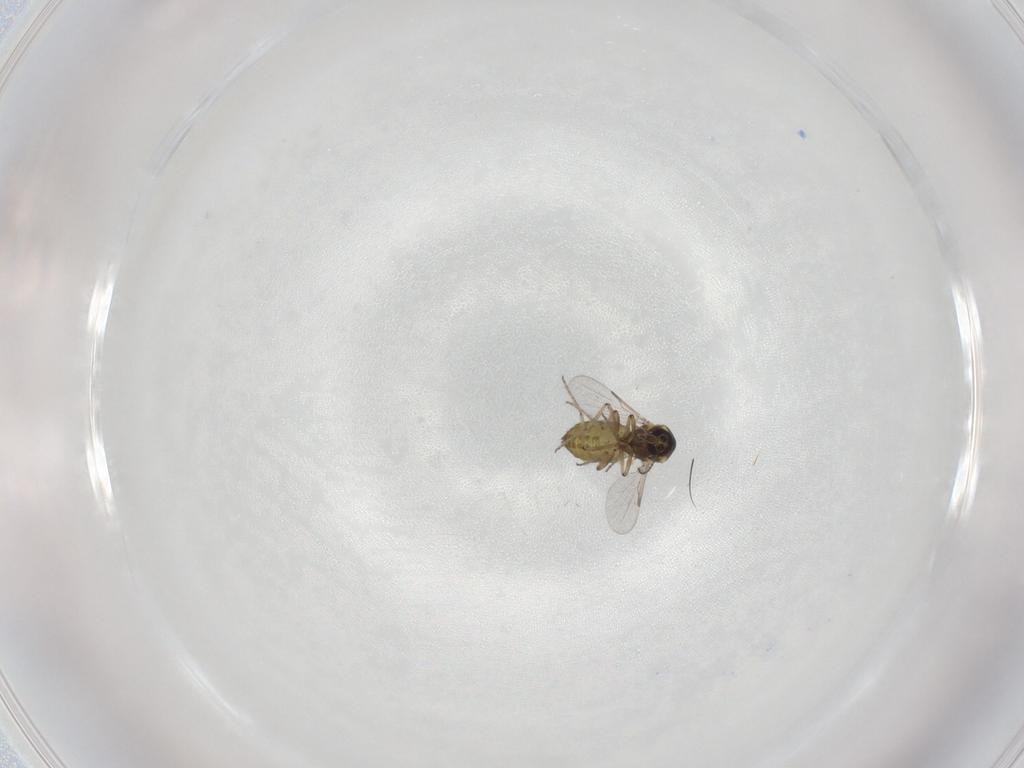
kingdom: Animalia
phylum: Arthropoda
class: Insecta
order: Diptera
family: Ceratopogonidae
